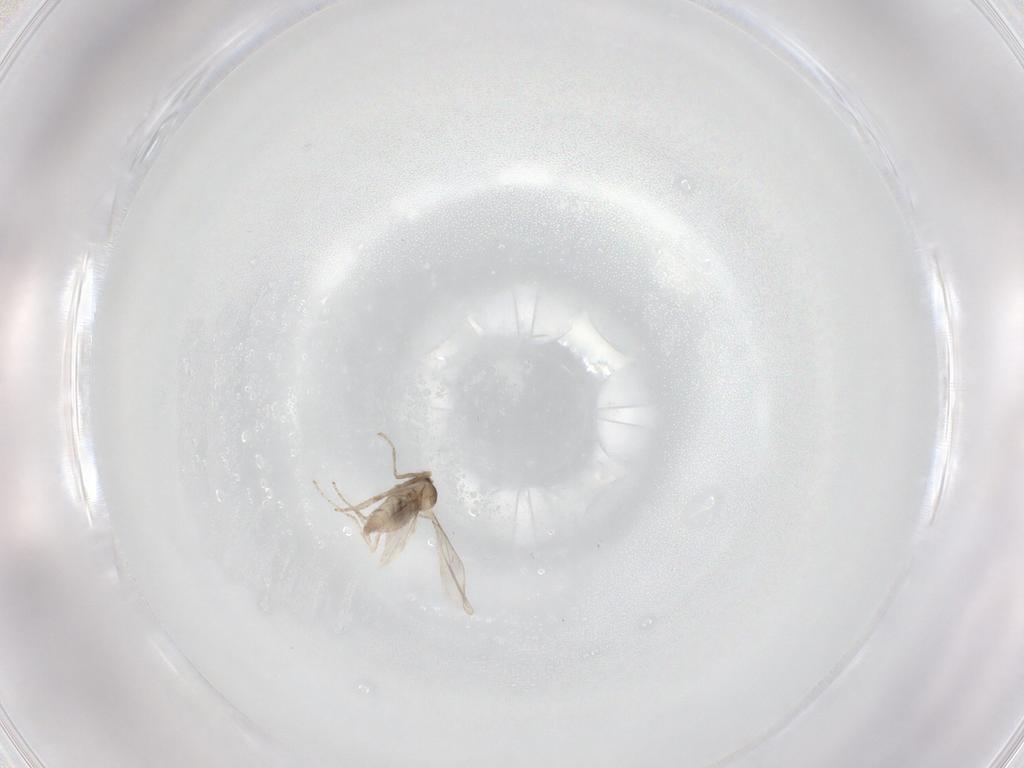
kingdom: Animalia
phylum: Arthropoda
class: Insecta
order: Diptera
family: Cecidomyiidae
